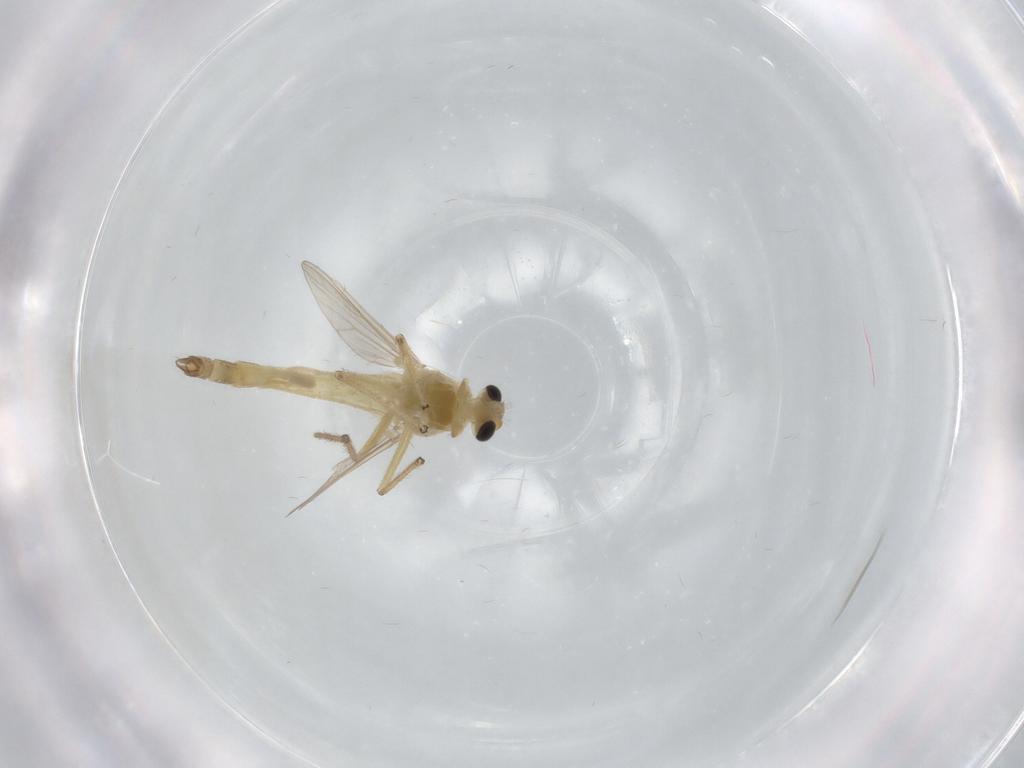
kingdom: Animalia
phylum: Arthropoda
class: Insecta
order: Diptera
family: Chironomidae
